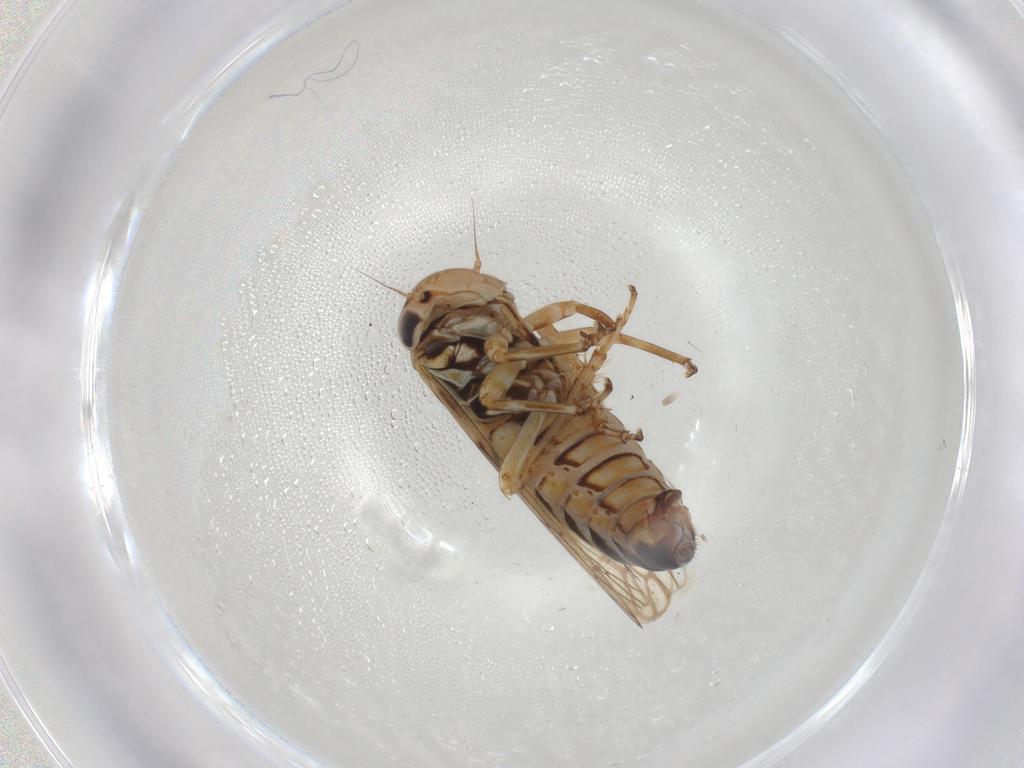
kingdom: Animalia
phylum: Arthropoda
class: Insecta
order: Hemiptera
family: Cicadellidae
